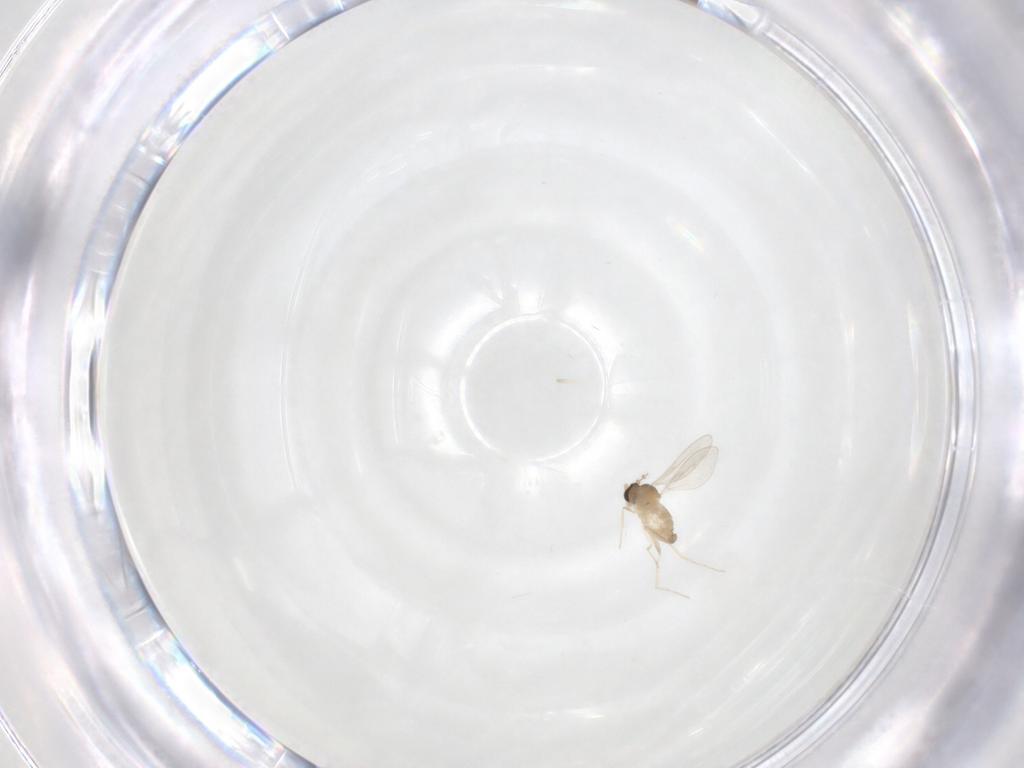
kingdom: Animalia
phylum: Arthropoda
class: Insecta
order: Diptera
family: Cecidomyiidae
